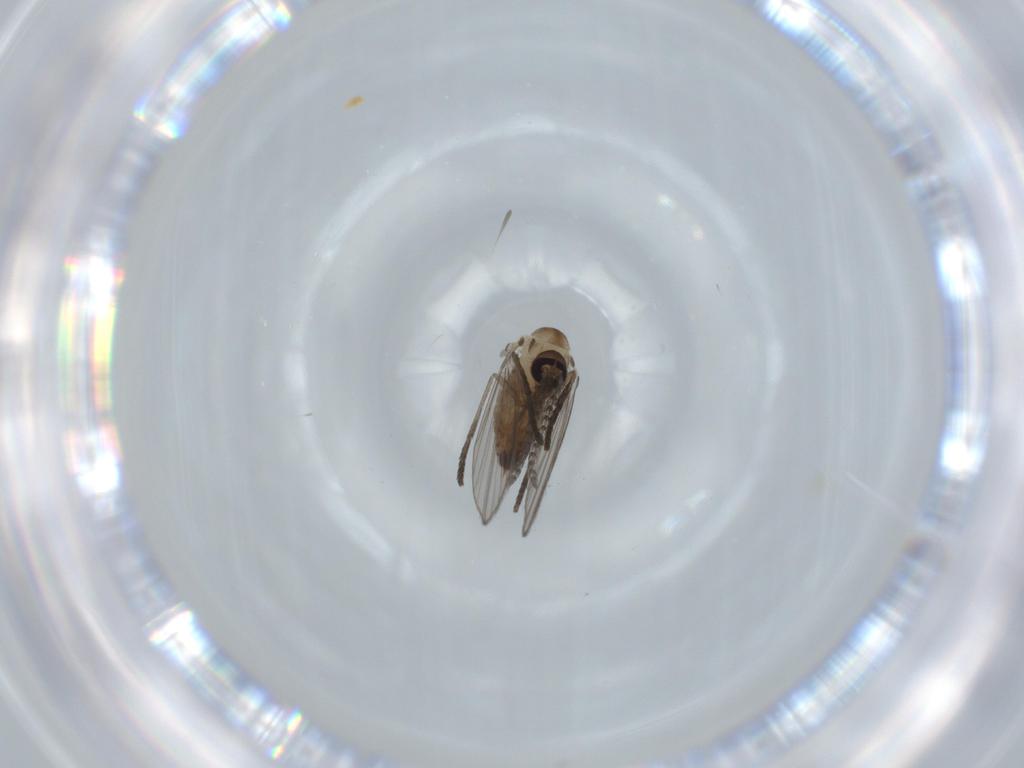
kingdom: Animalia
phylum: Arthropoda
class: Insecta
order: Diptera
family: Psychodidae
